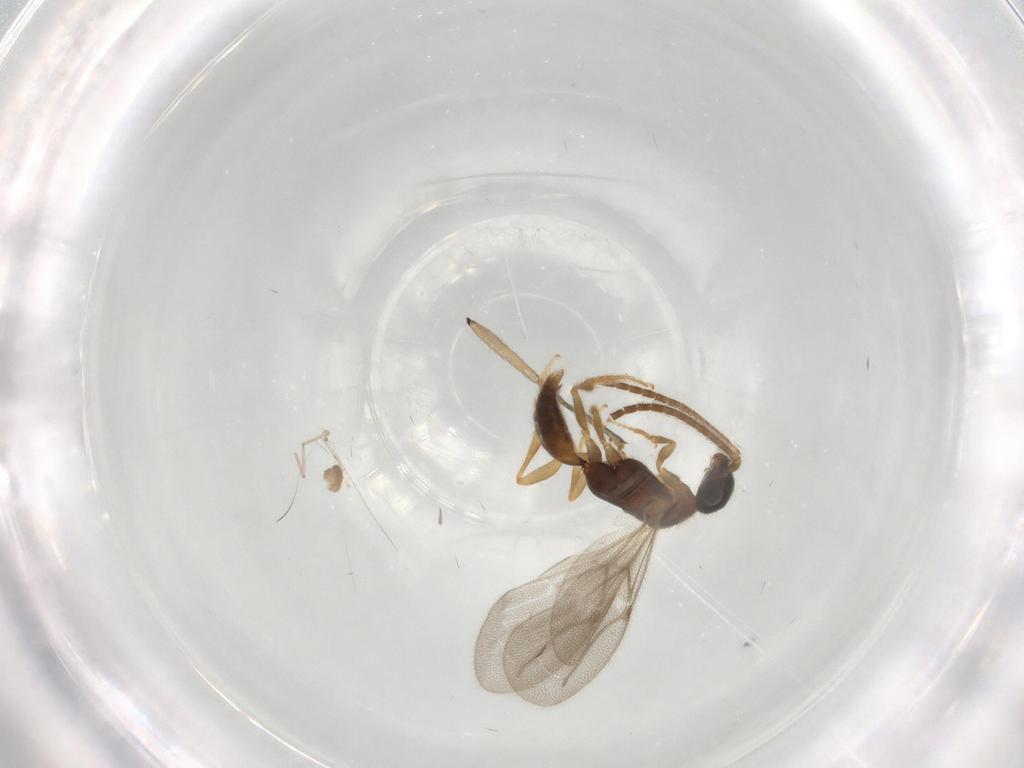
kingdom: Animalia
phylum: Arthropoda
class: Insecta
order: Hymenoptera
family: Bethylidae
